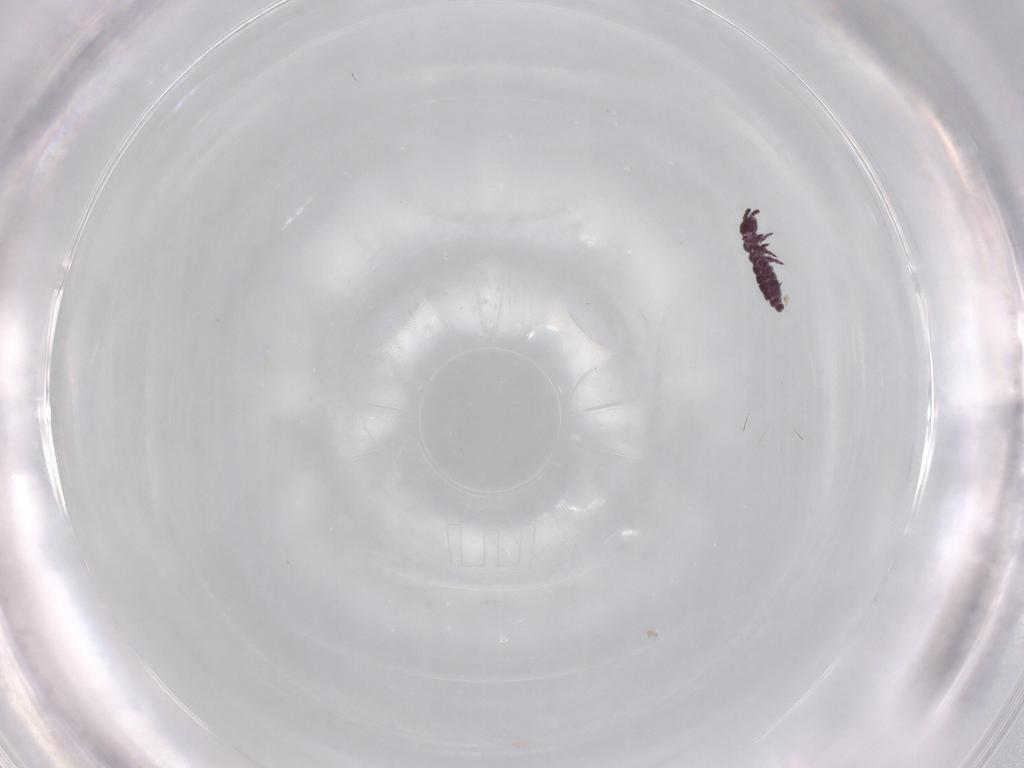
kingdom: Animalia
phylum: Arthropoda
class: Collembola
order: Poduromorpha
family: Hypogastruridae
